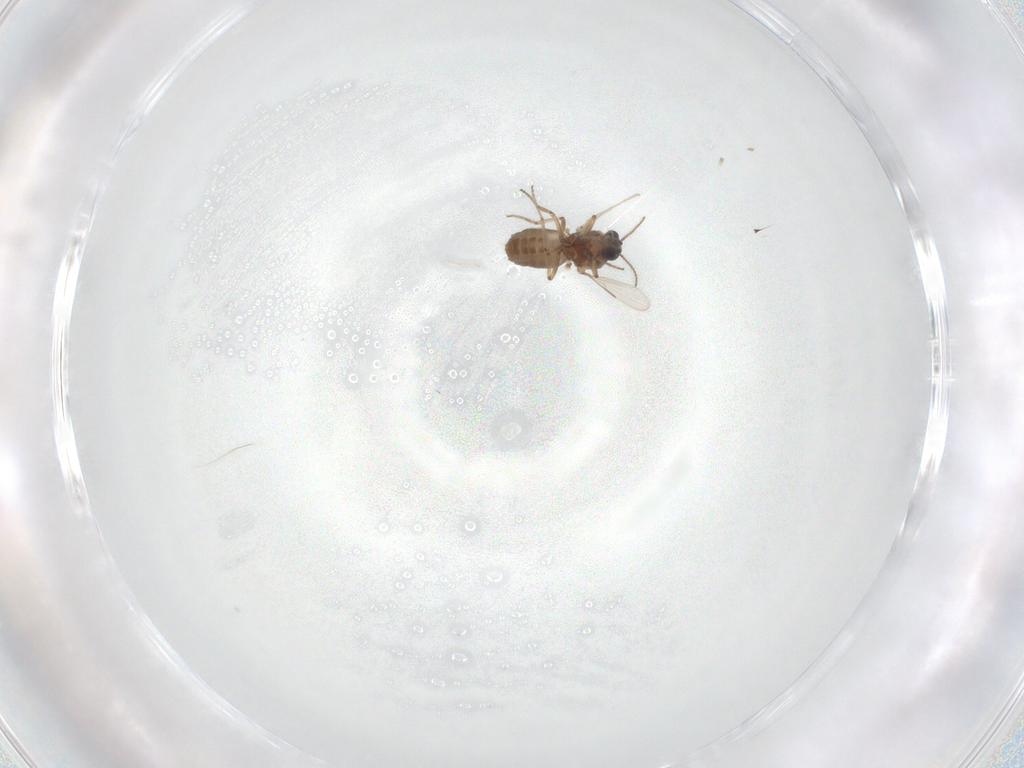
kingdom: Animalia
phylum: Arthropoda
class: Insecta
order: Diptera
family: Ceratopogonidae
